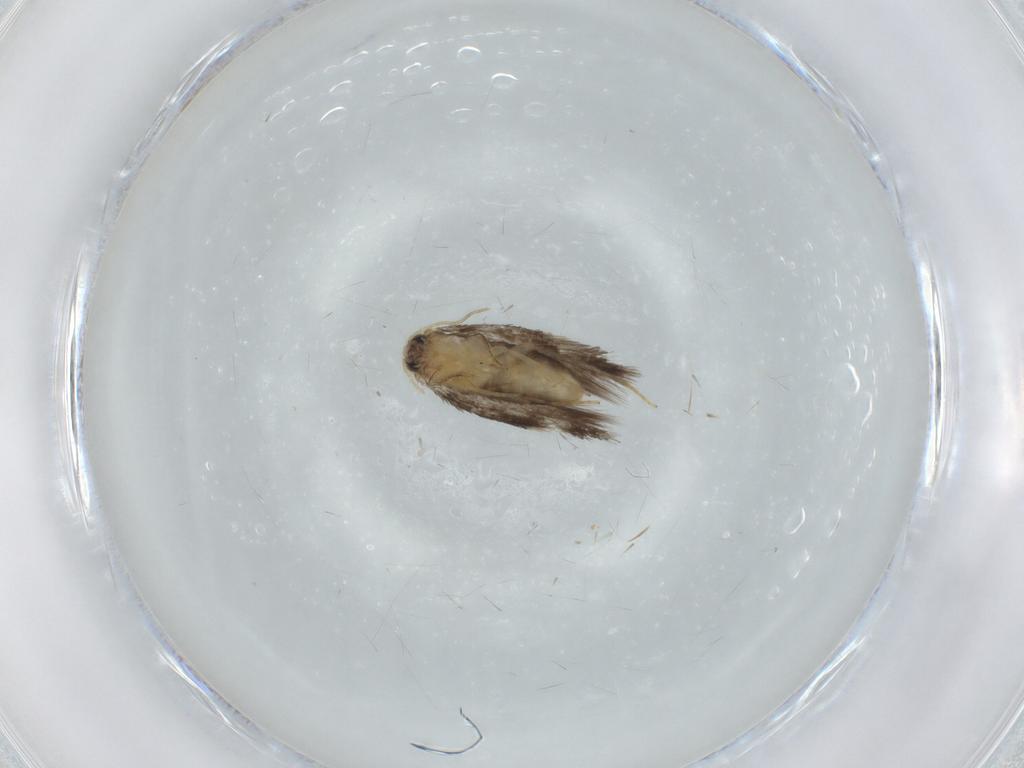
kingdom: Animalia
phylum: Arthropoda
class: Insecta
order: Lepidoptera
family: Nepticulidae
